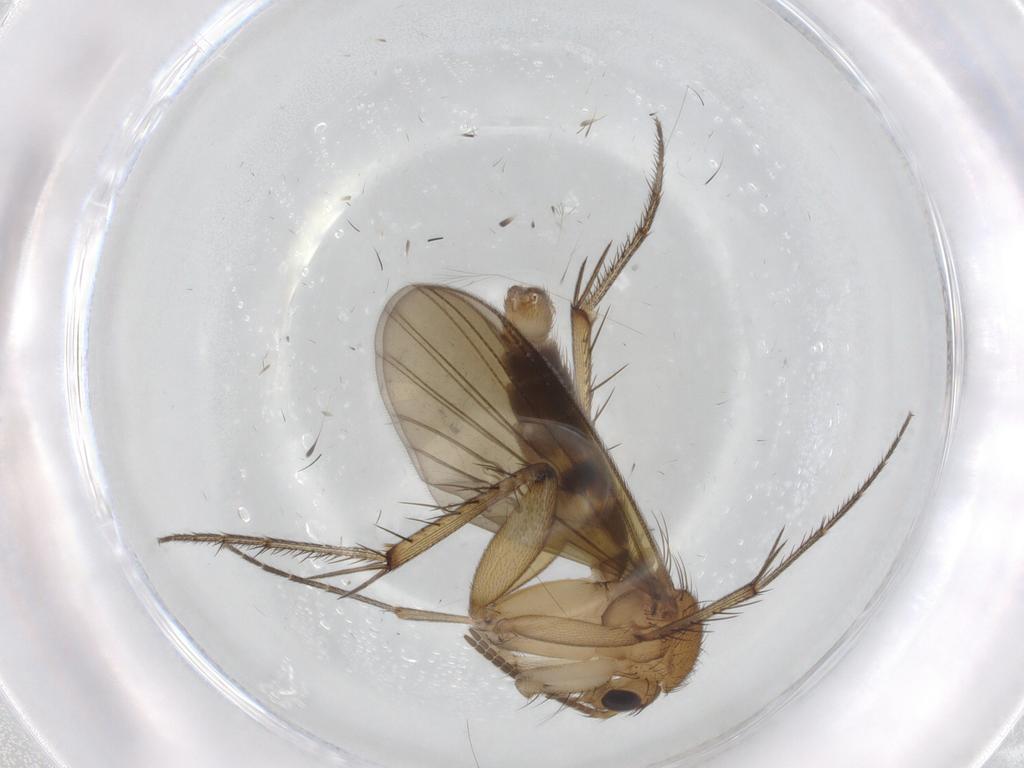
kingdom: Animalia
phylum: Arthropoda
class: Insecta
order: Diptera
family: Sciaridae
